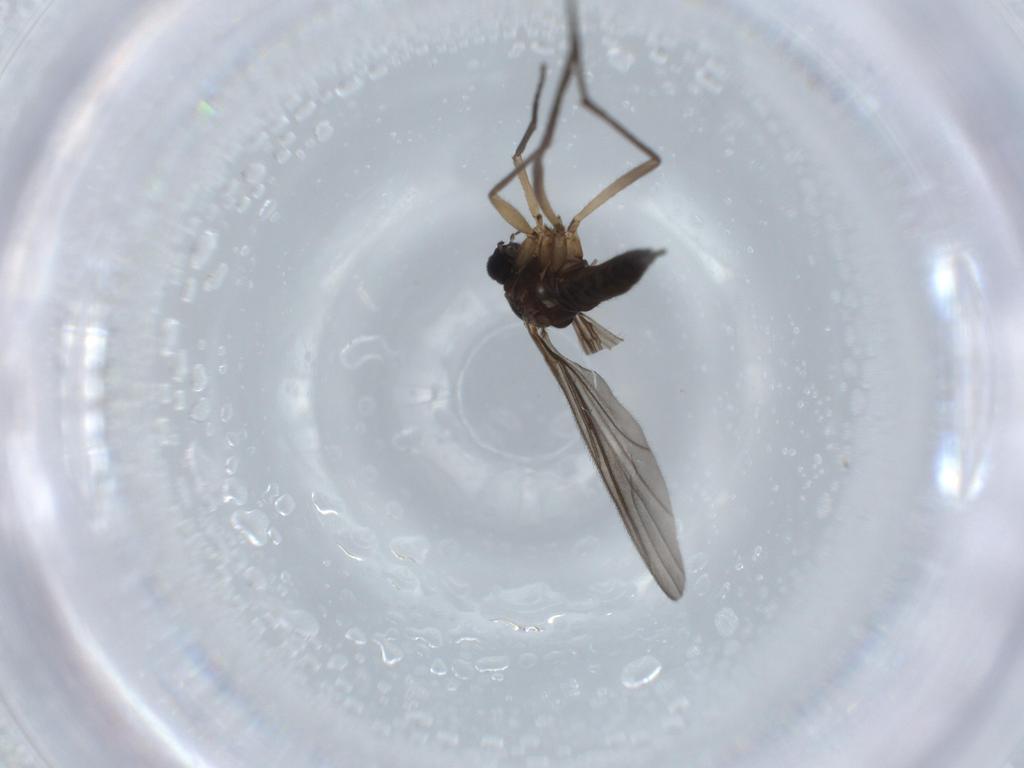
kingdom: Animalia
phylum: Arthropoda
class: Insecta
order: Diptera
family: Sciaridae
